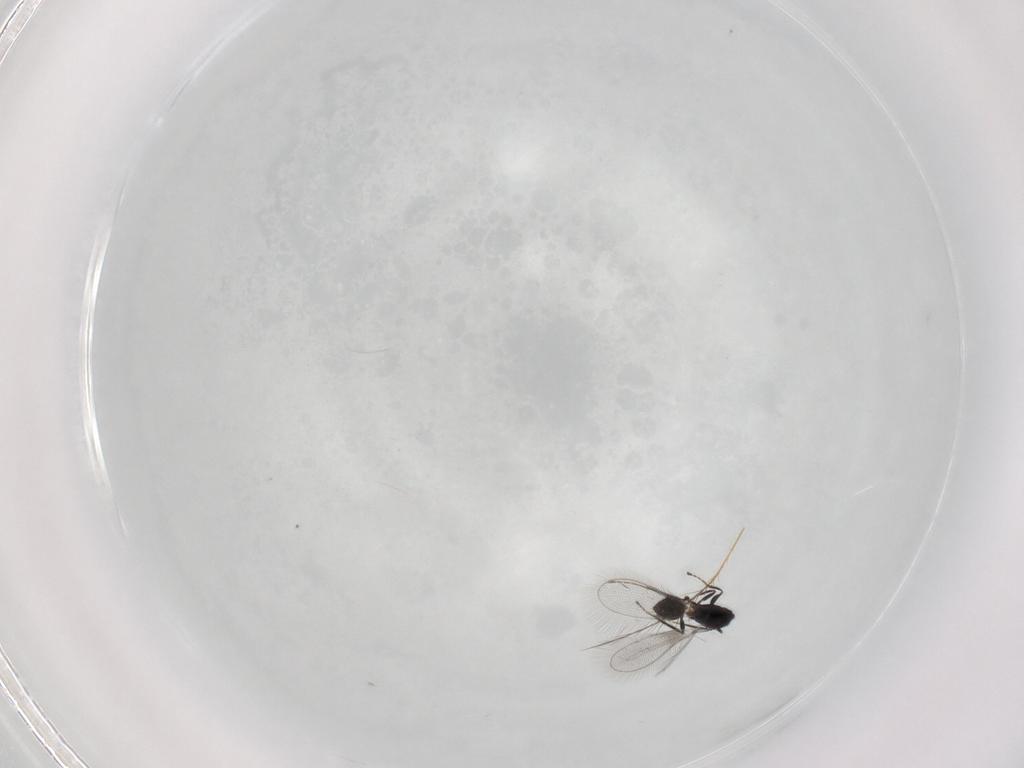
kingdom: Animalia
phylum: Arthropoda
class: Insecta
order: Hymenoptera
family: Mymaridae
